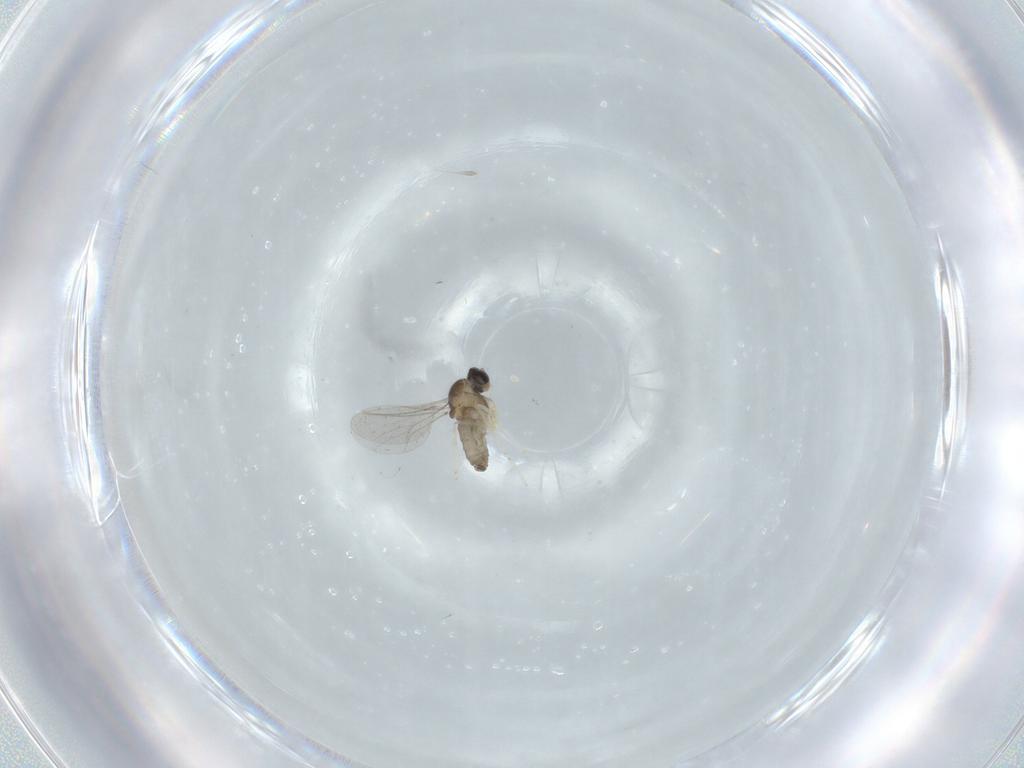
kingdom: Animalia
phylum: Arthropoda
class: Insecta
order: Diptera
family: Cecidomyiidae
